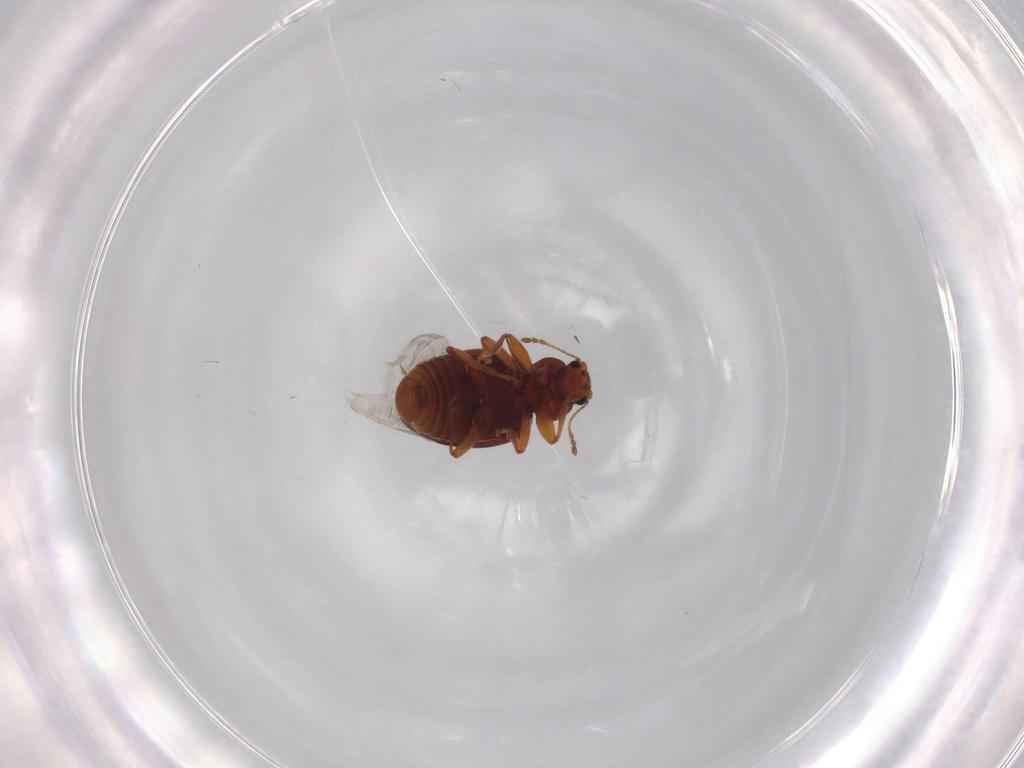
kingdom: Animalia
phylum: Arthropoda
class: Insecta
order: Coleoptera
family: Latridiidae
